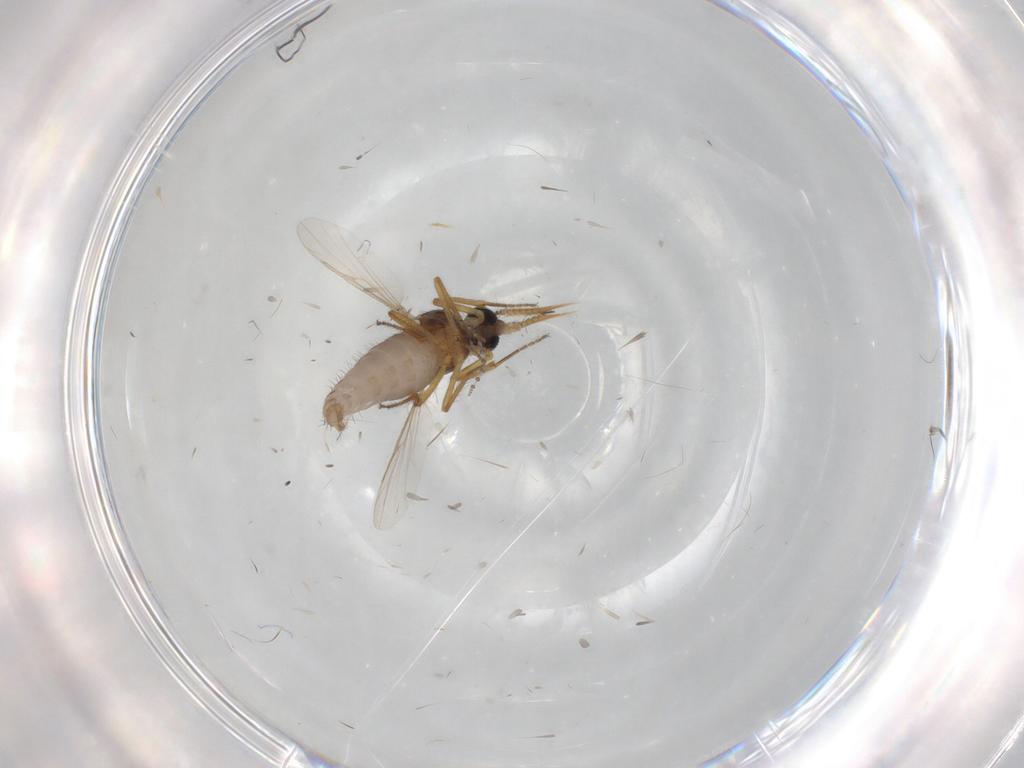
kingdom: Animalia
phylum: Arthropoda
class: Insecta
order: Diptera
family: Ceratopogonidae
